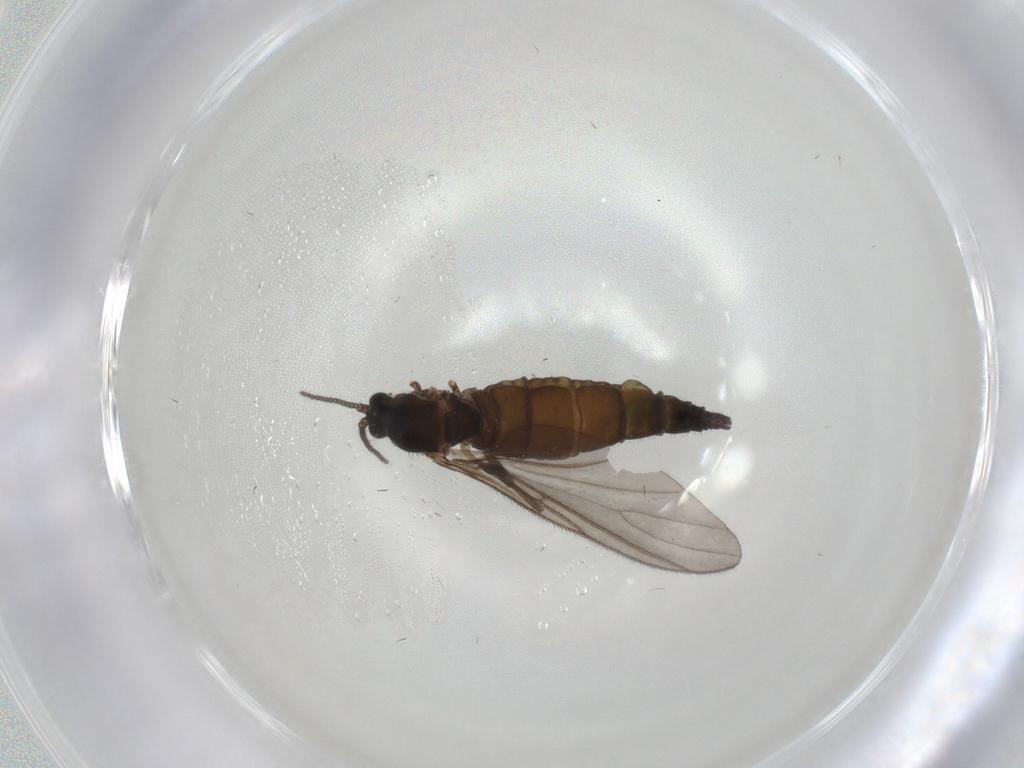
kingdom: Animalia
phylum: Arthropoda
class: Insecta
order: Diptera
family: Sciaridae
